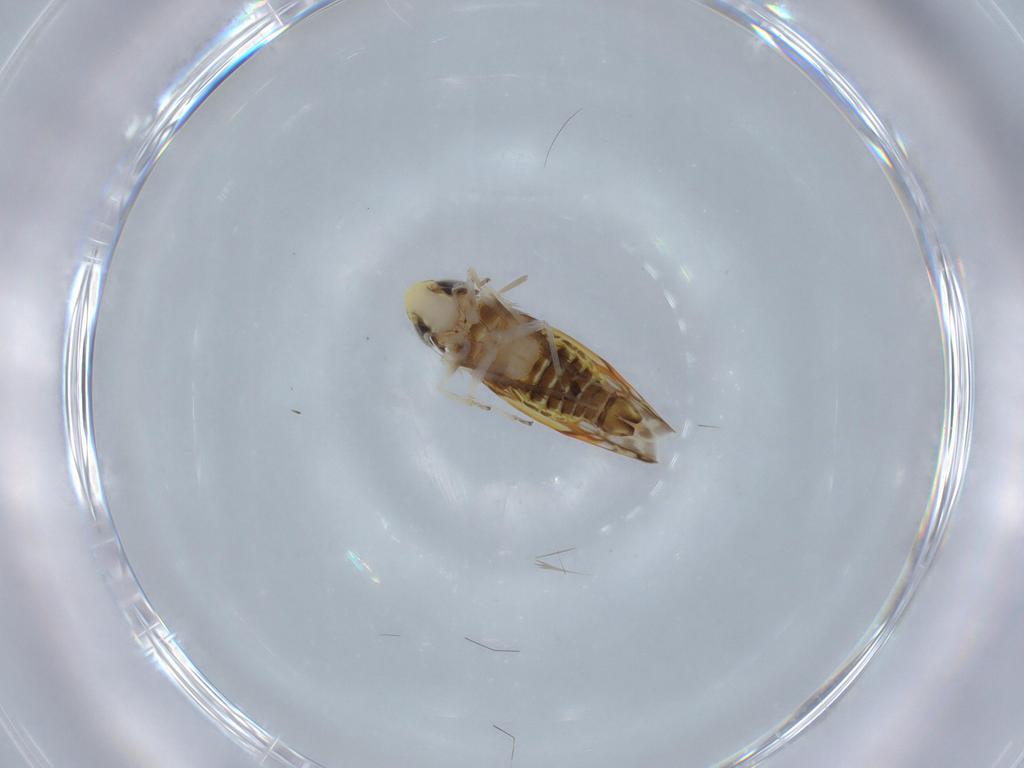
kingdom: Animalia
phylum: Arthropoda
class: Insecta
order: Hemiptera
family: Cicadellidae
